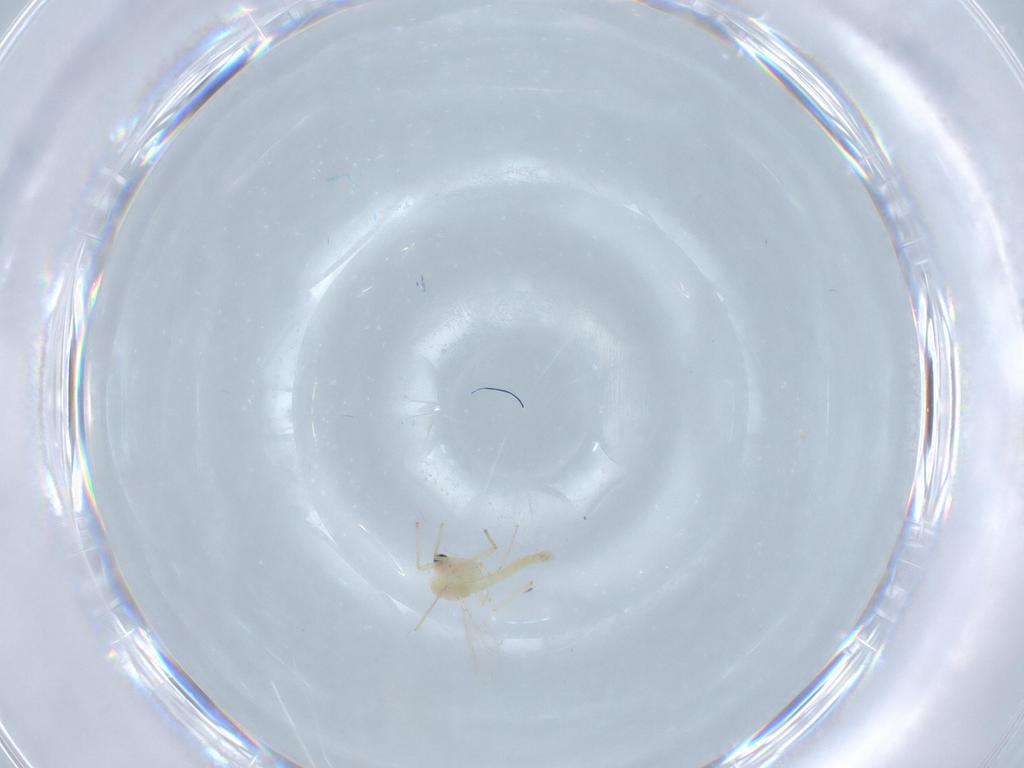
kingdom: Animalia
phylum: Arthropoda
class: Insecta
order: Diptera
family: Chironomidae
